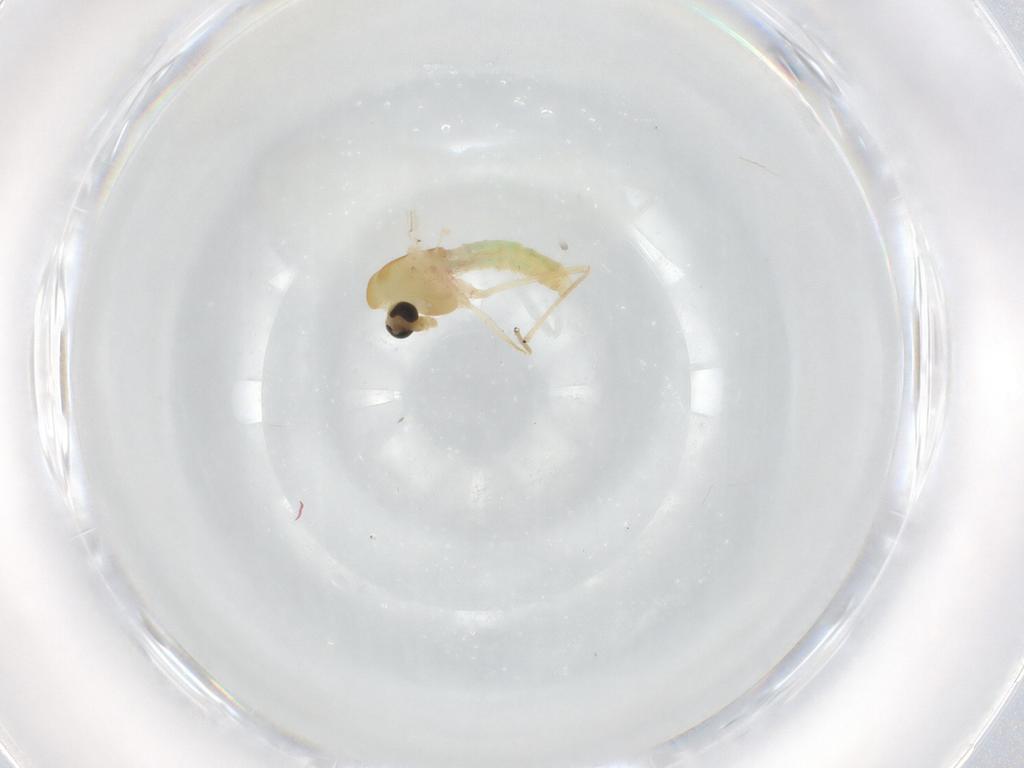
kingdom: Animalia
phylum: Arthropoda
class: Insecta
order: Diptera
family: Chironomidae
